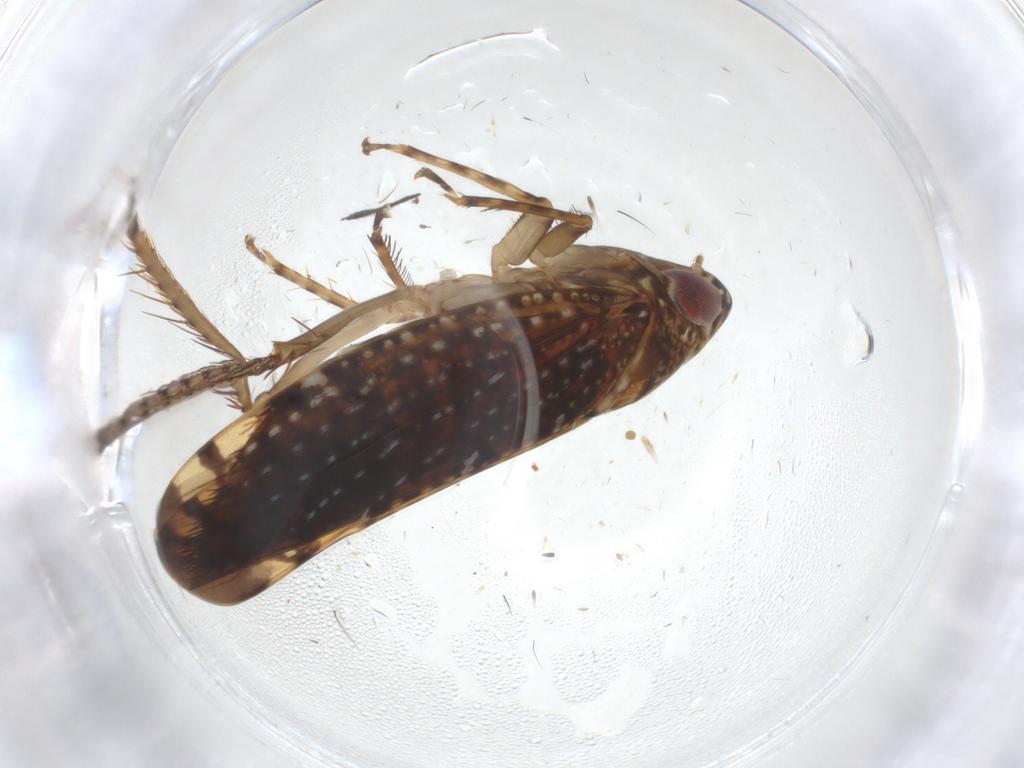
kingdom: Animalia
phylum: Arthropoda
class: Insecta
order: Hemiptera
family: Cicadellidae
